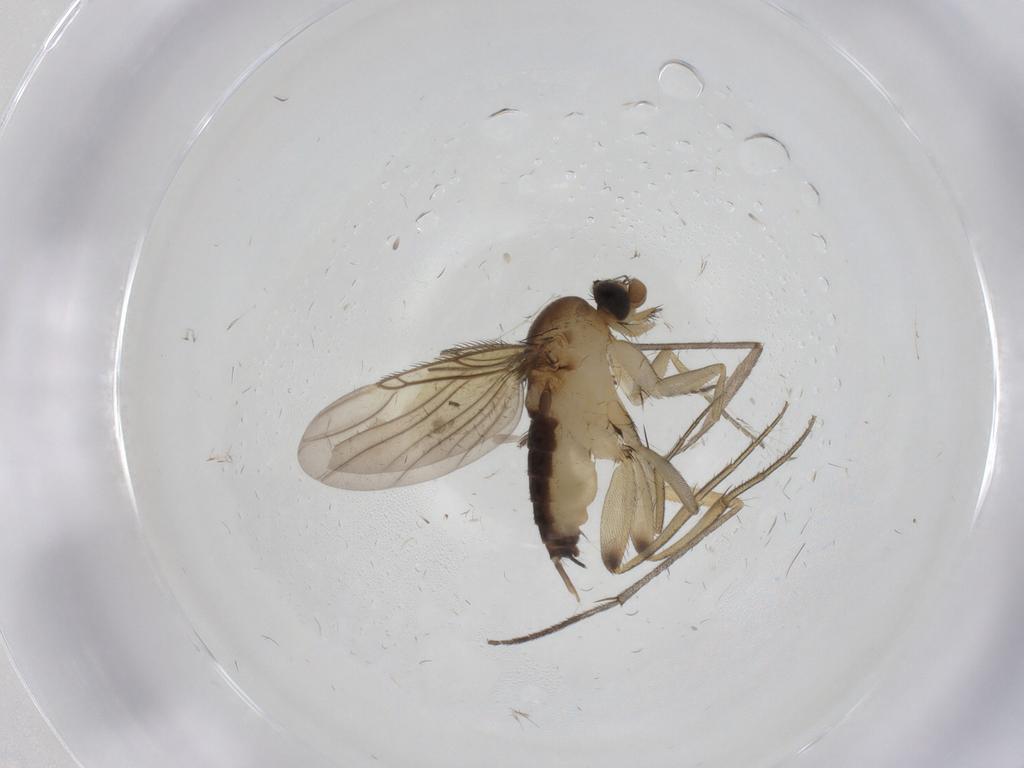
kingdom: Animalia
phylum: Arthropoda
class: Insecta
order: Diptera
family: Phoridae
